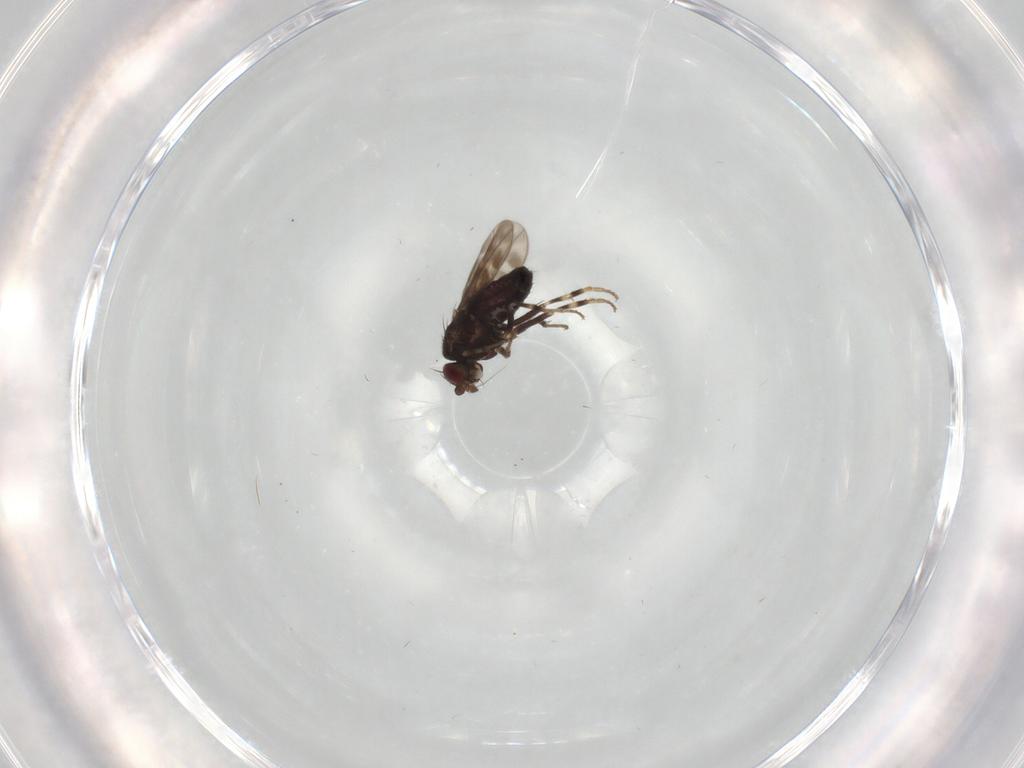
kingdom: Animalia
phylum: Arthropoda
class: Insecta
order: Diptera
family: Sphaeroceridae
